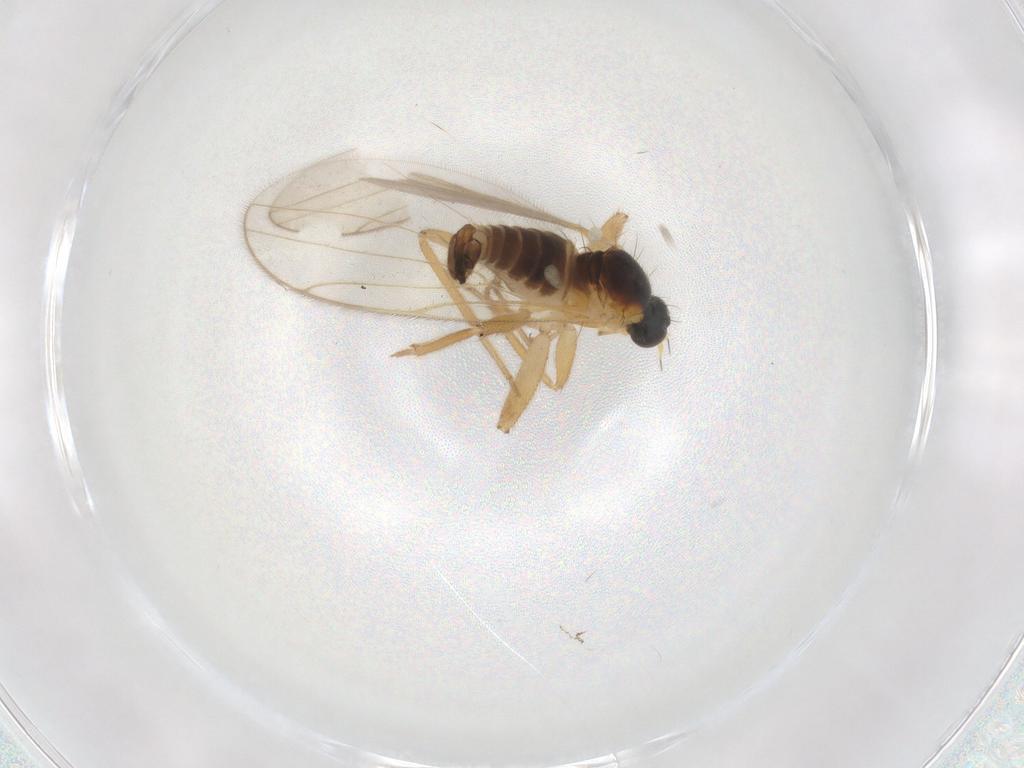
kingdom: Animalia
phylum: Arthropoda
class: Insecta
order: Diptera
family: Hybotidae
